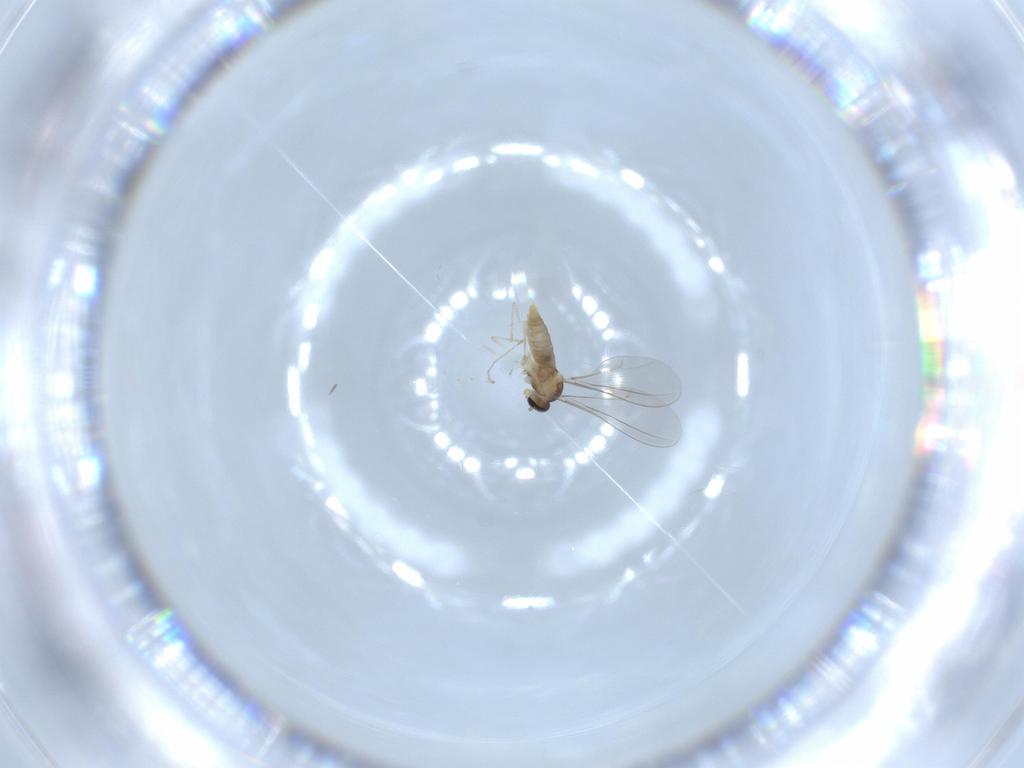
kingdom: Animalia
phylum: Arthropoda
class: Insecta
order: Diptera
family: Cecidomyiidae
